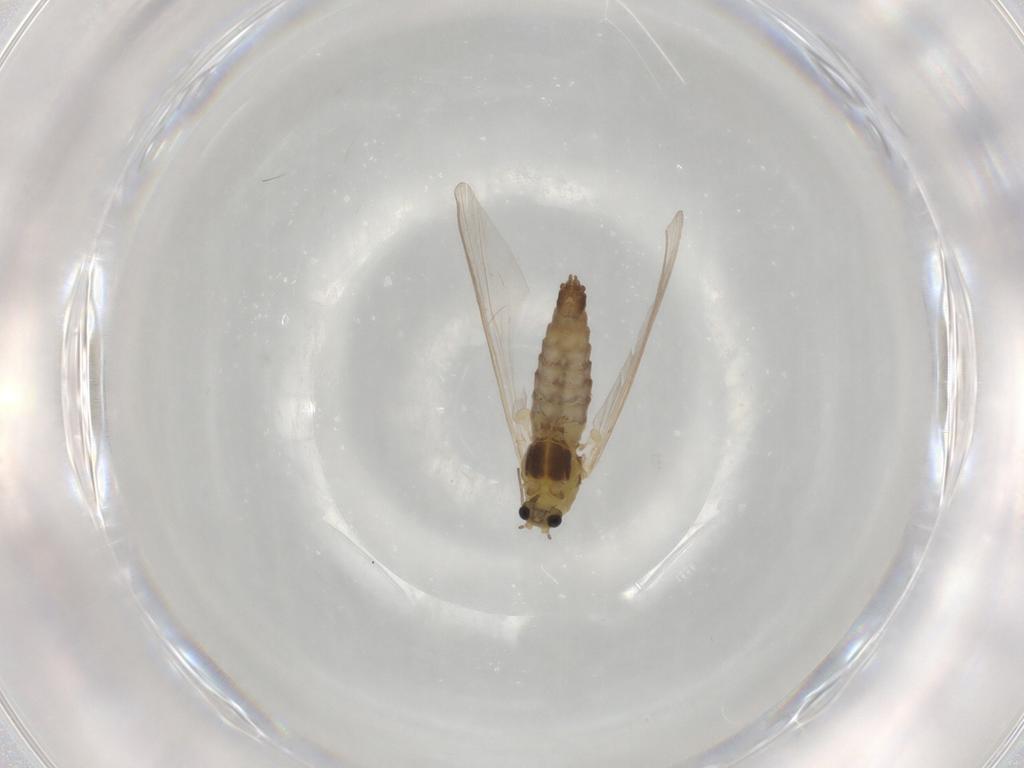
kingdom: Animalia
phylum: Arthropoda
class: Insecta
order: Diptera
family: Chironomidae
